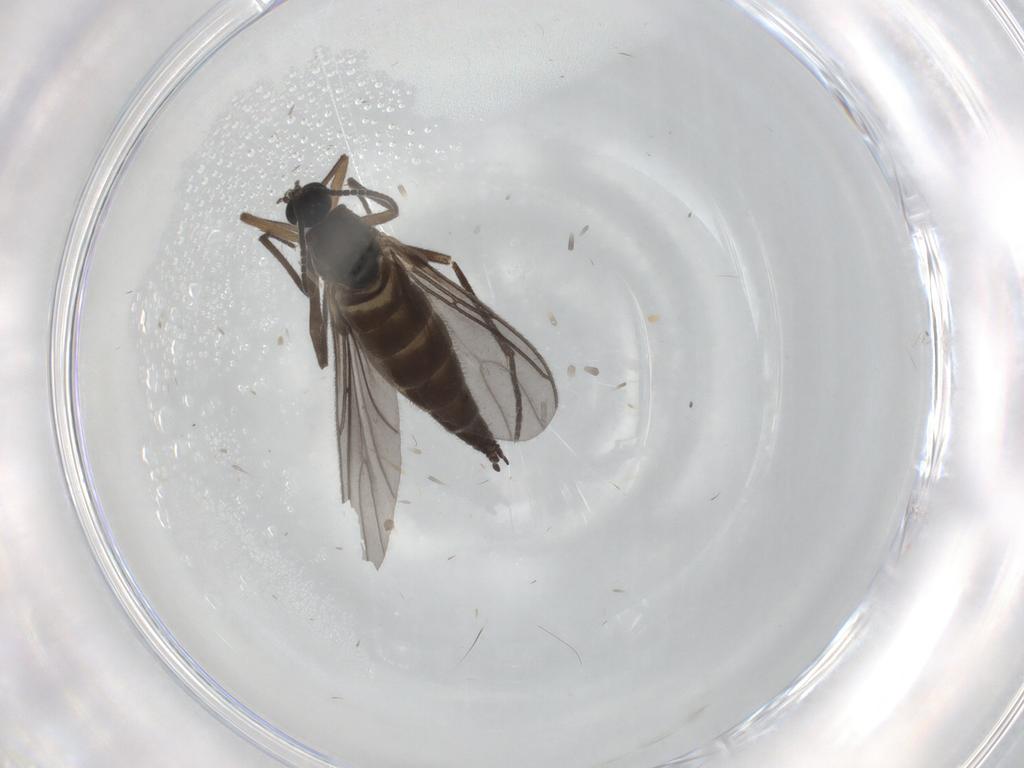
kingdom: Animalia
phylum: Arthropoda
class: Insecta
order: Diptera
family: Sciaridae
